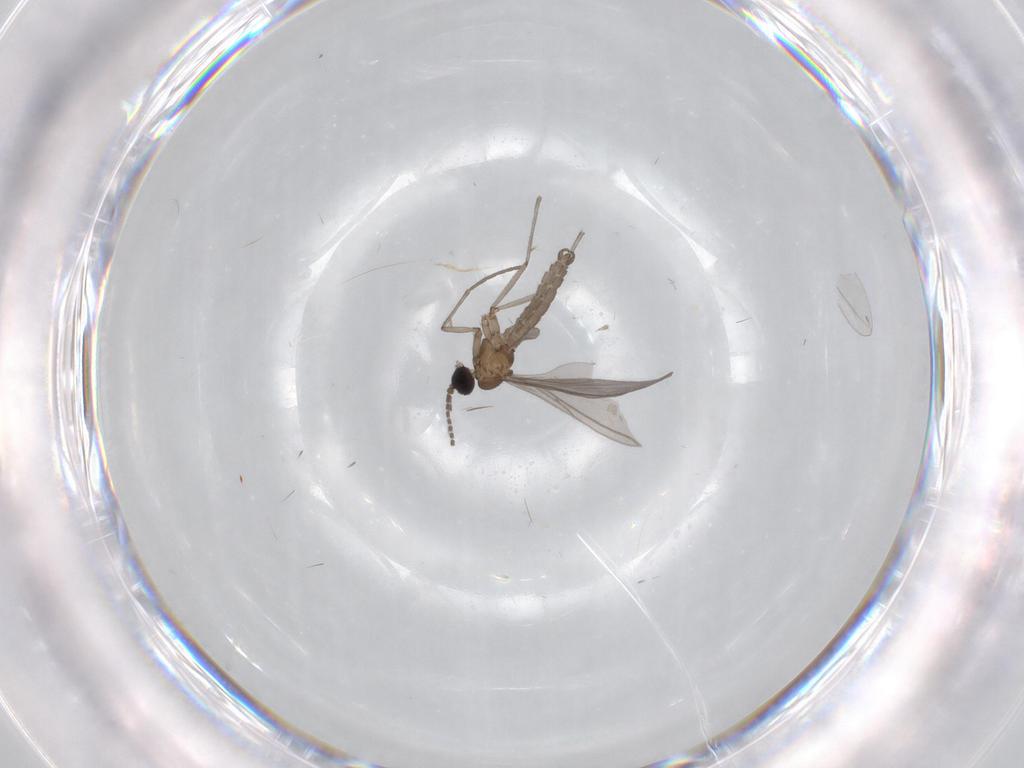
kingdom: Animalia
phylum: Arthropoda
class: Insecta
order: Diptera
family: Sciaridae
